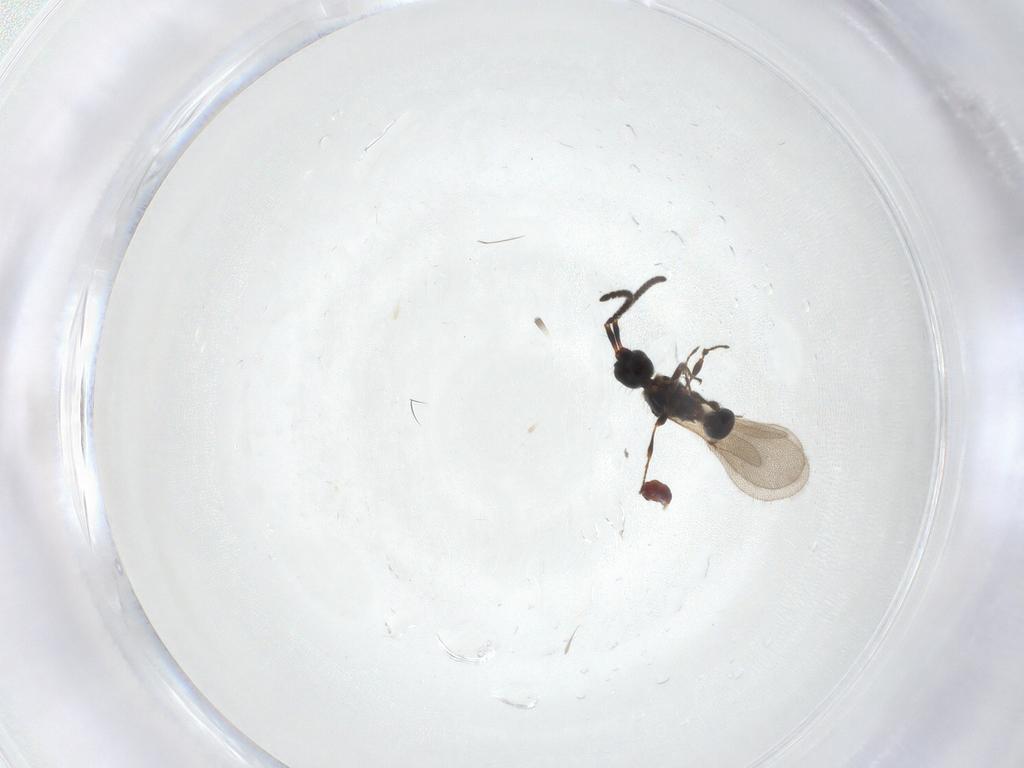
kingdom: Animalia
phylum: Arthropoda
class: Insecta
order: Hymenoptera
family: Diapriidae
